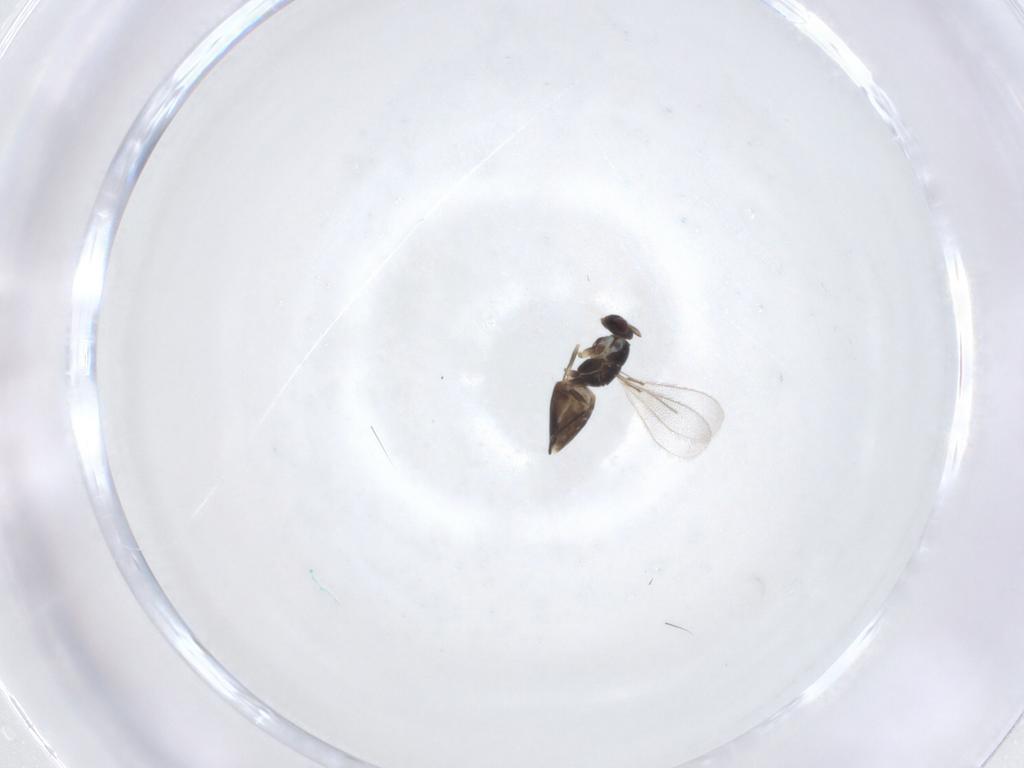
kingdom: Animalia
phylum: Arthropoda
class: Insecta
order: Hymenoptera
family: Mymaridae
